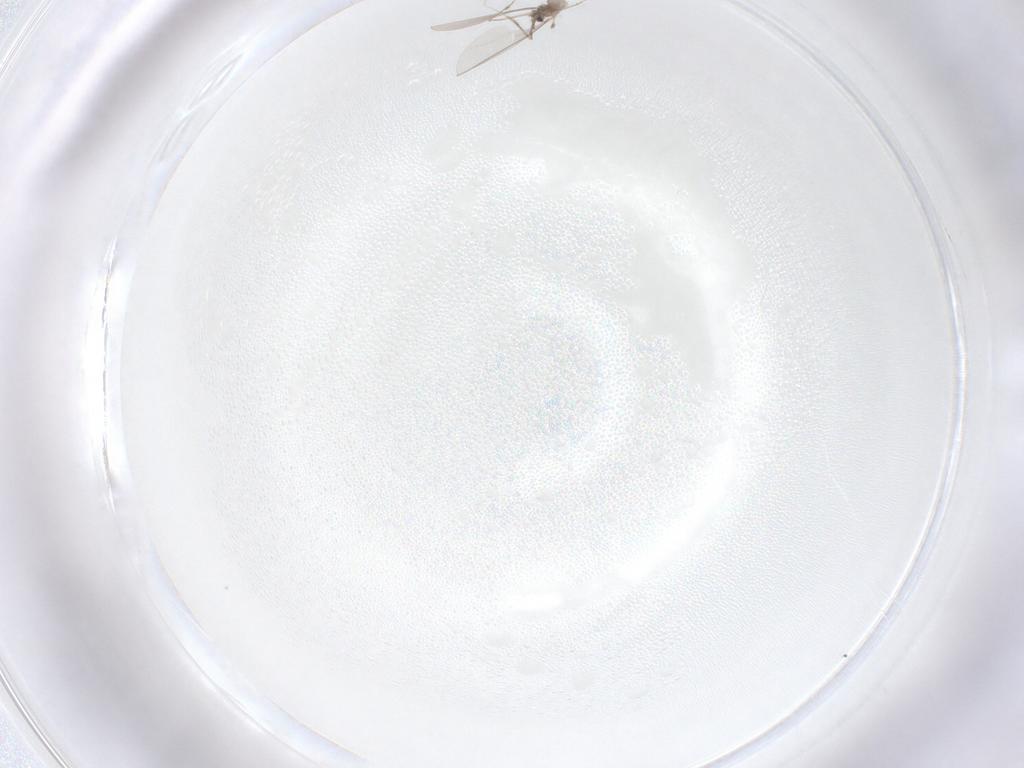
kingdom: Animalia
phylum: Arthropoda
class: Insecta
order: Diptera
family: Cecidomyiidae
